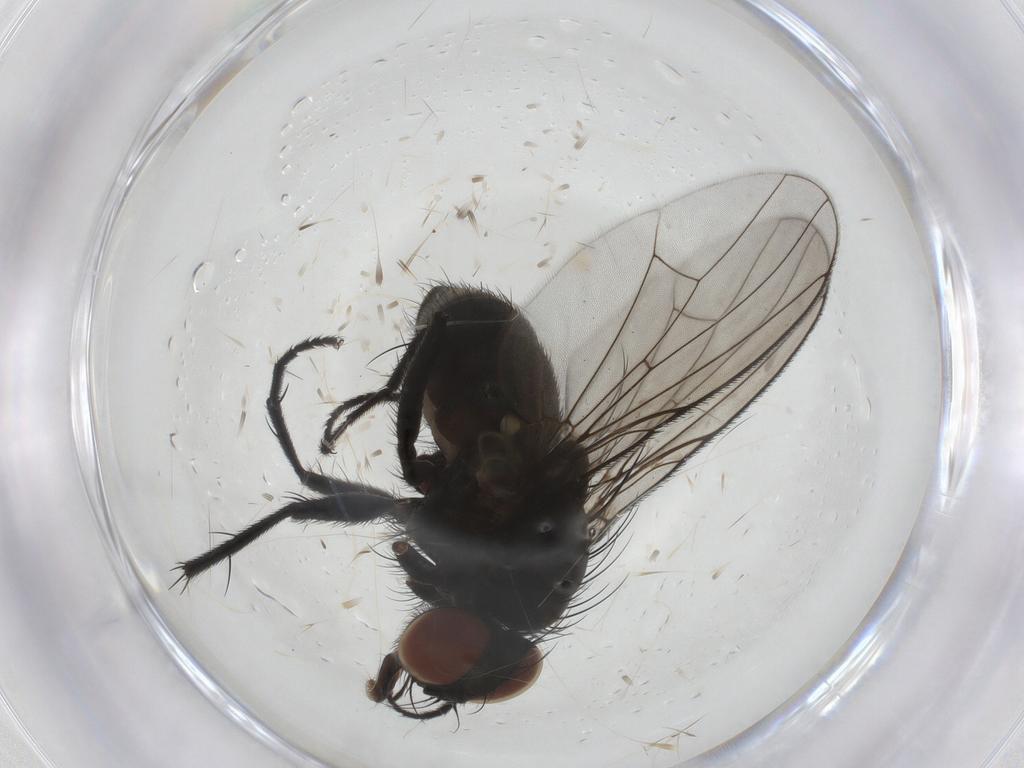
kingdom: Animalia
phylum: Arthropoda
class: Insecta
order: Diptera
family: Muscidae
